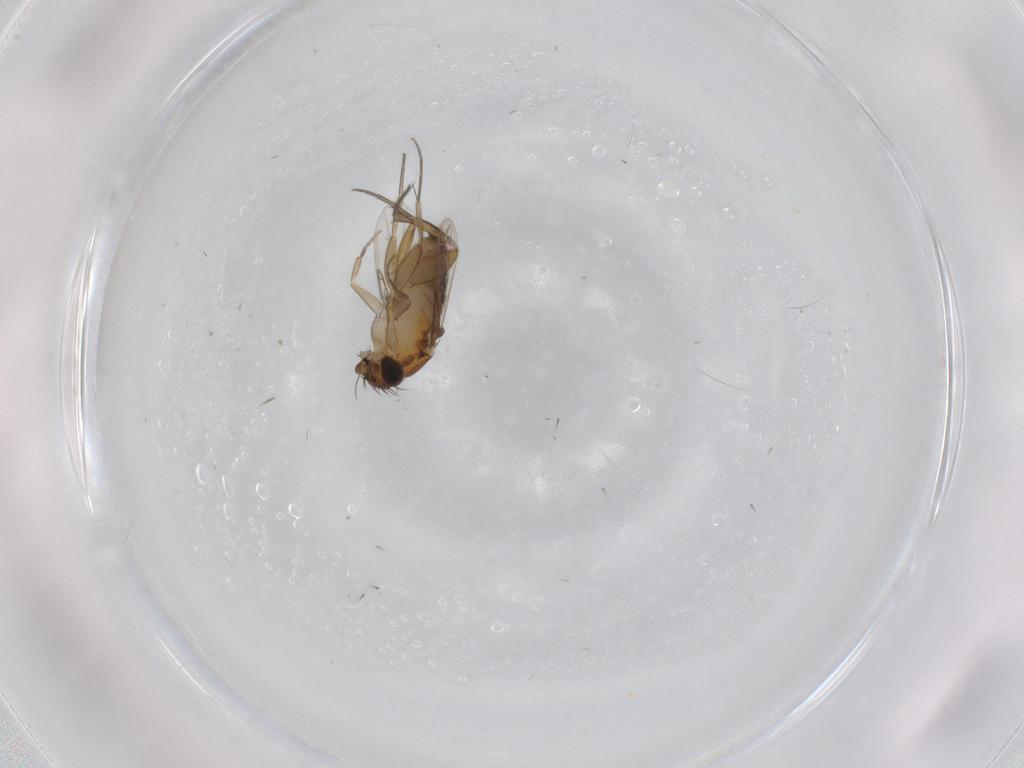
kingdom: Animalia
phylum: Arthropoda
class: Insecta
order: Diptera
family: Phoridae
